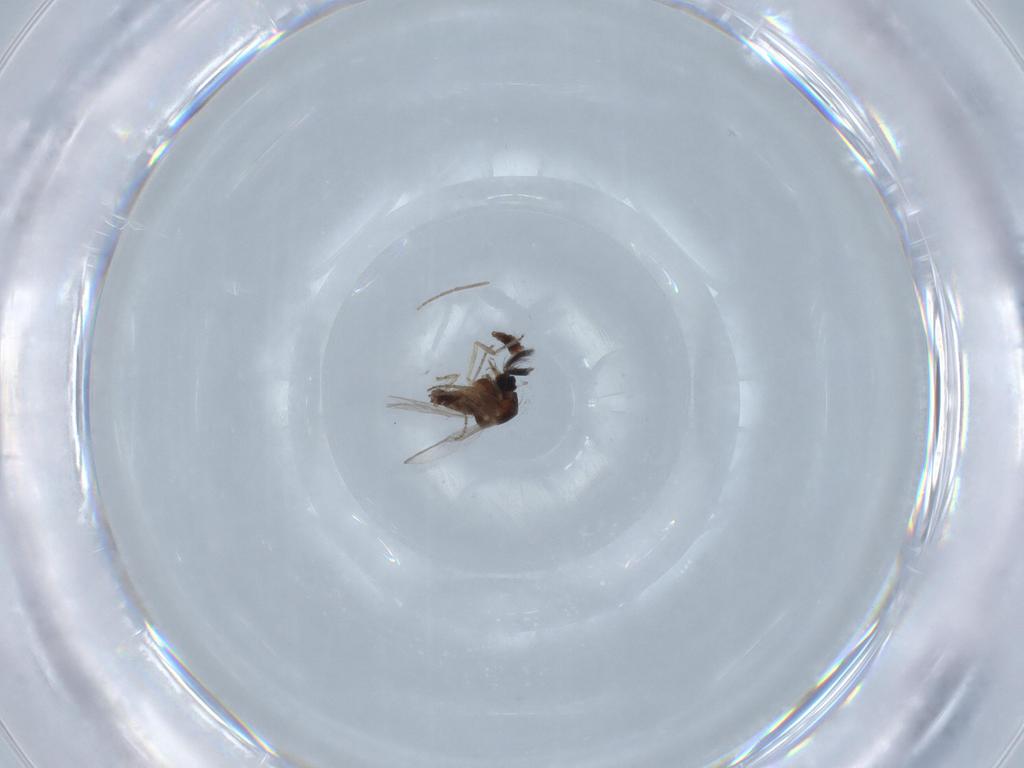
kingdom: Animalia
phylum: Arthropoda
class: Insecta
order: Diptera
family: Ceratopogonidae
